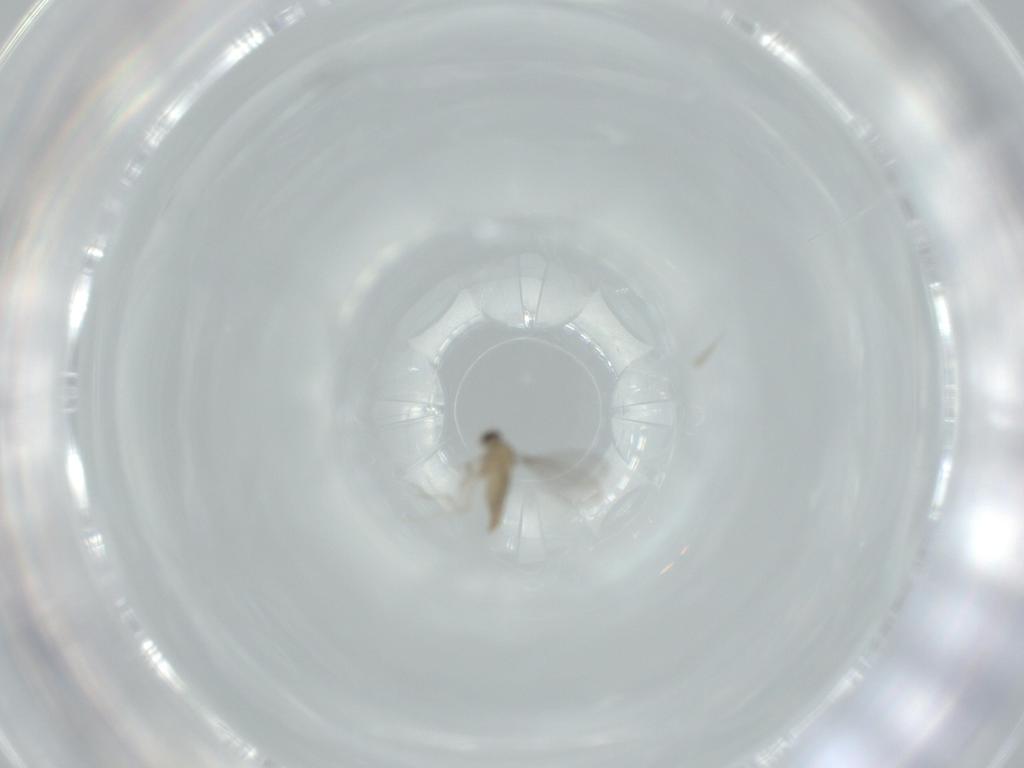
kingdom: Animalia
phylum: Arthropoda
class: Insecta
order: Diptera
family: Cecidomyiidae
